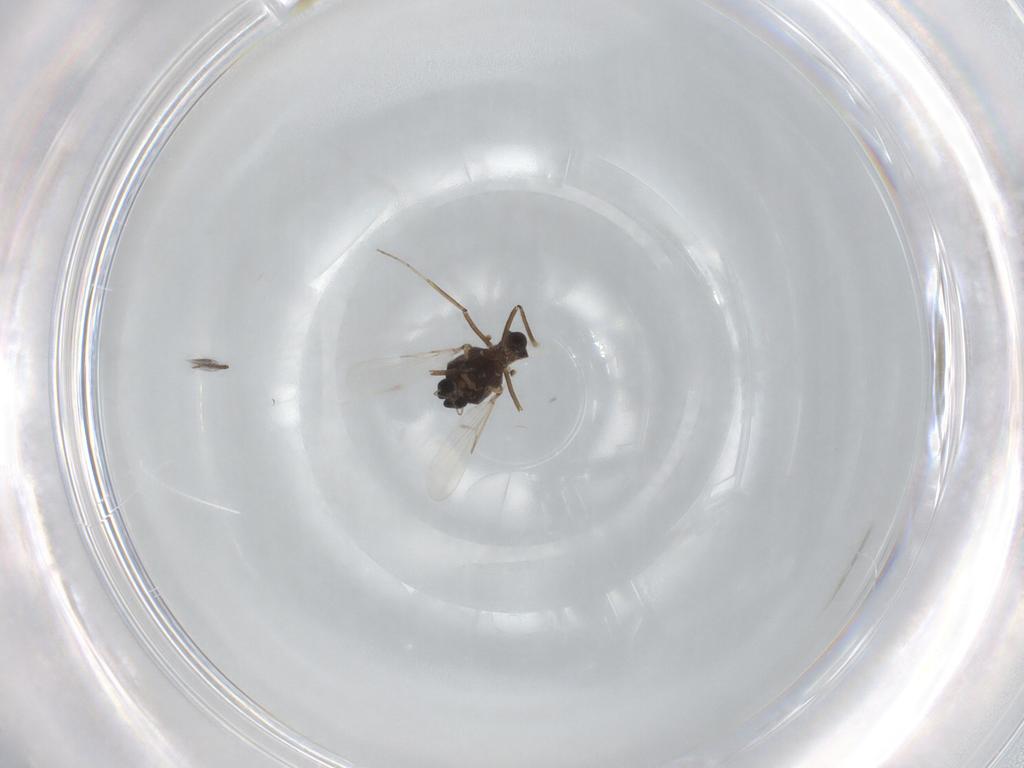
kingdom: Animalia
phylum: Arthropoda
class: Insecta
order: Diptera
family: Ceratopogonidae
